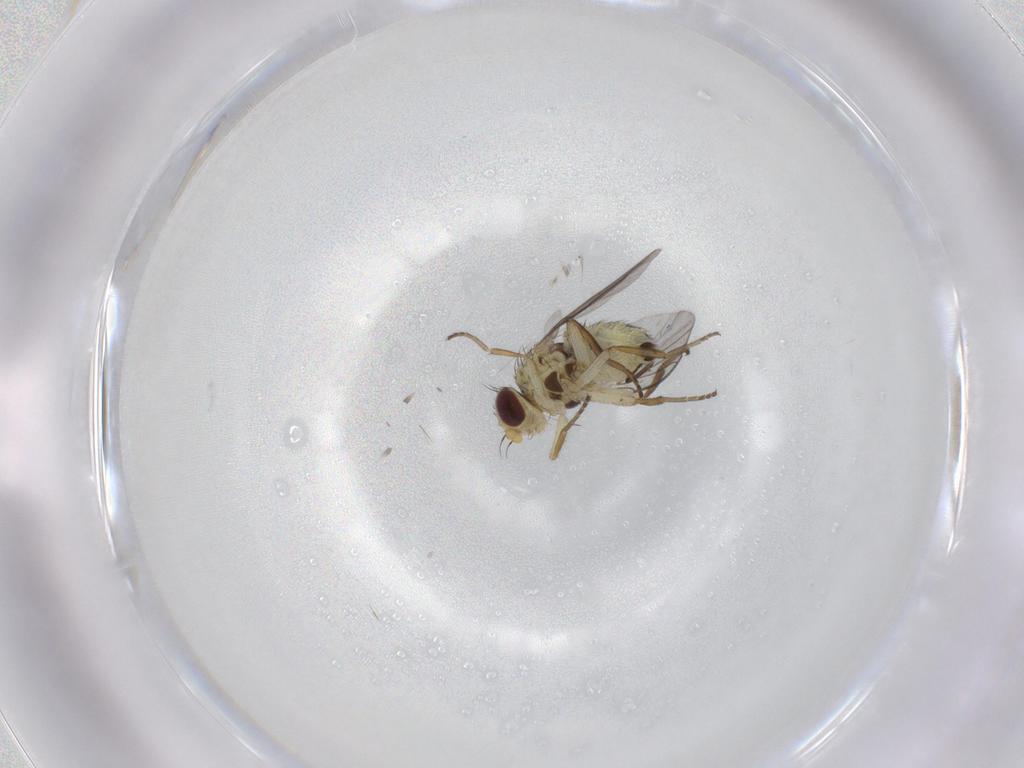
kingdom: Animalia
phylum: Arthropoda
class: Insecta
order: Diptera
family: Agromyzidae
